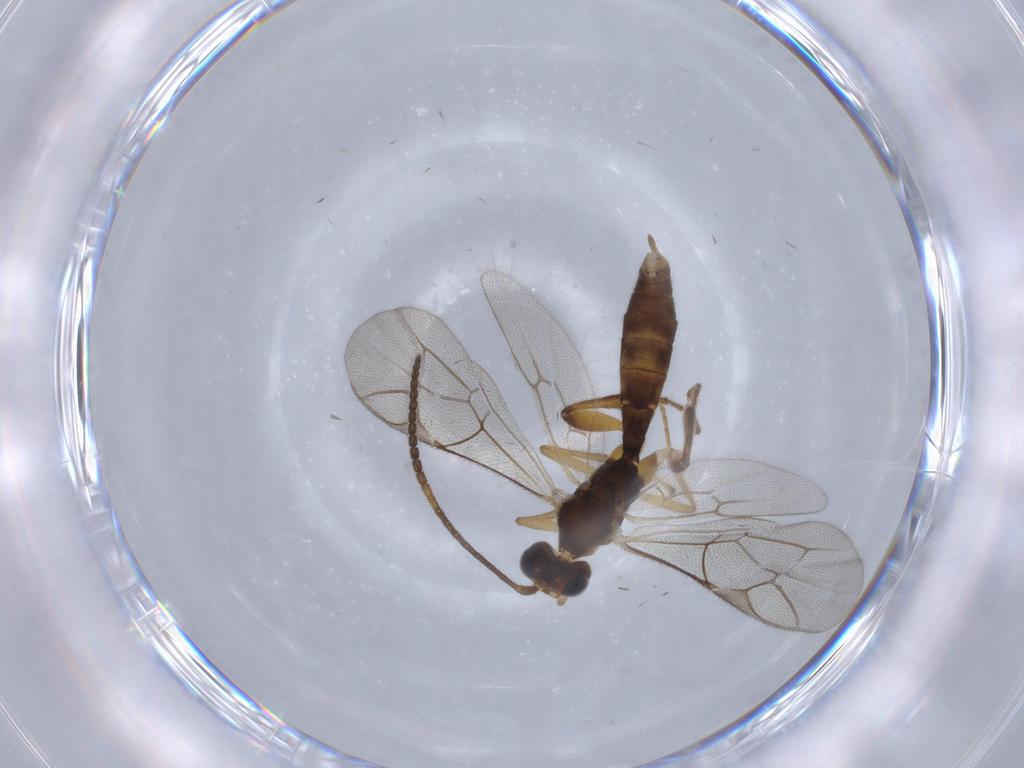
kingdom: Animalia
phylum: Arthropoda
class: Insecta
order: Hymenoptera
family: Ichneumonidae
